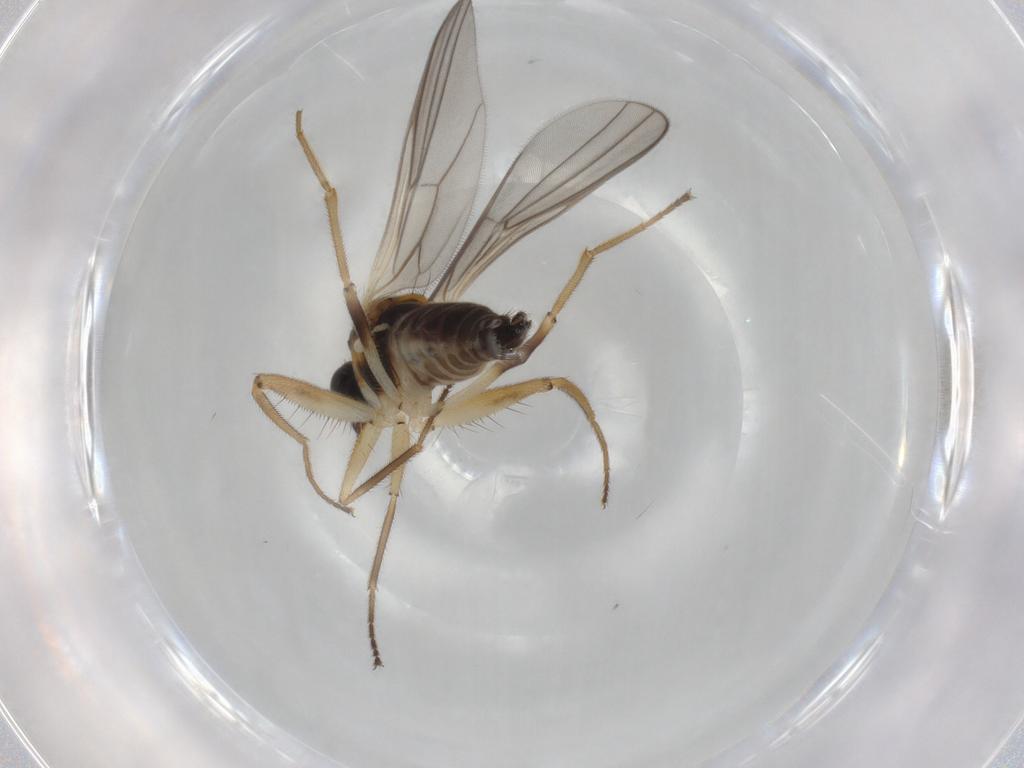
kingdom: Animalia
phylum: Arthropoda
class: Insecta
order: Diptera
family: Hybotidae
